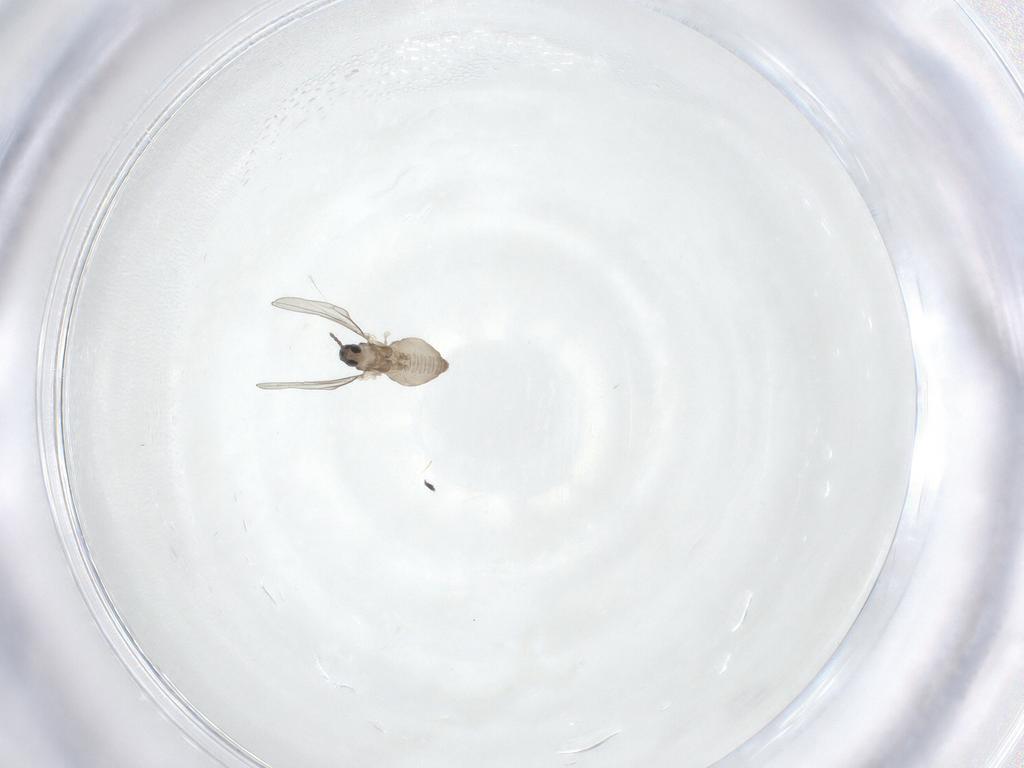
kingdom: Animalia
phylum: Arthropoda
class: Insecta
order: Diptera
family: Cecidomyiidae
